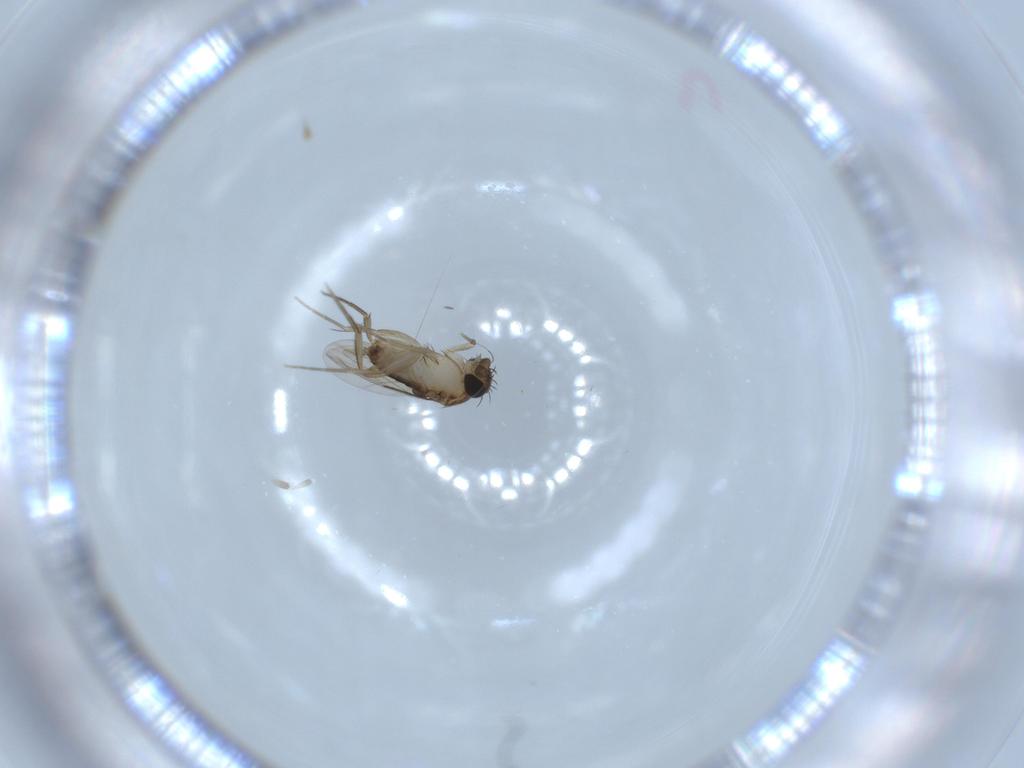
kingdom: Animalia
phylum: Arthropoda
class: Insecta
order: Diptera
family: Phoridae
